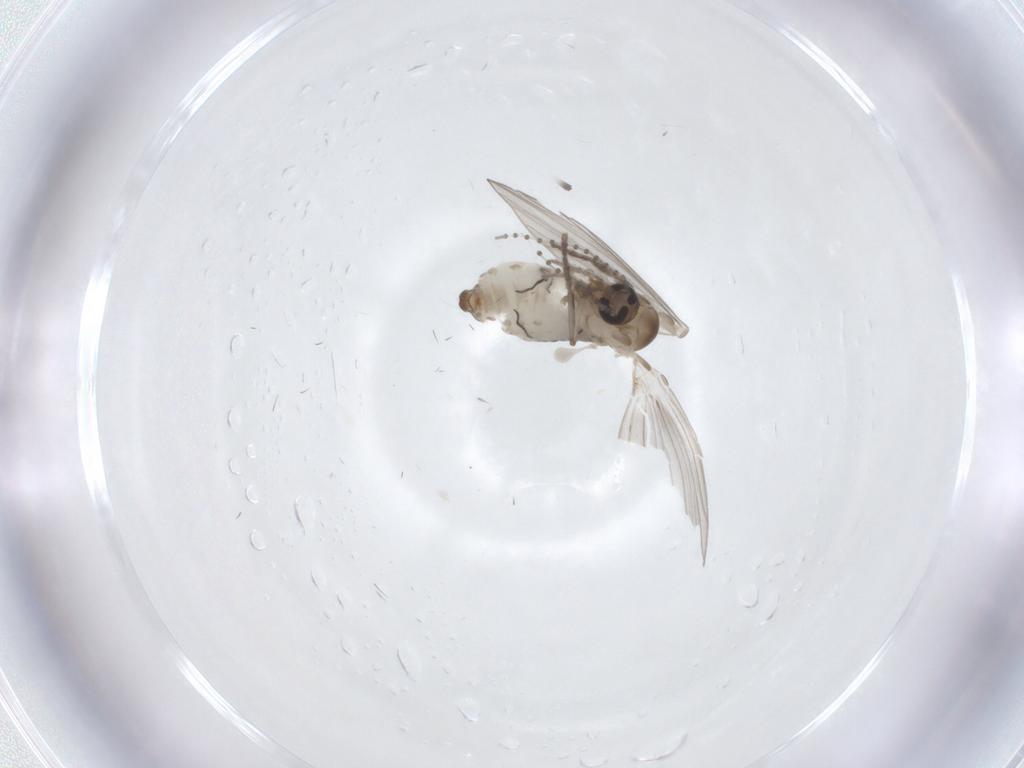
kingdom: Animalia
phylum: Arthropoda
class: Insecta
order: Diptera
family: Psychodidae
